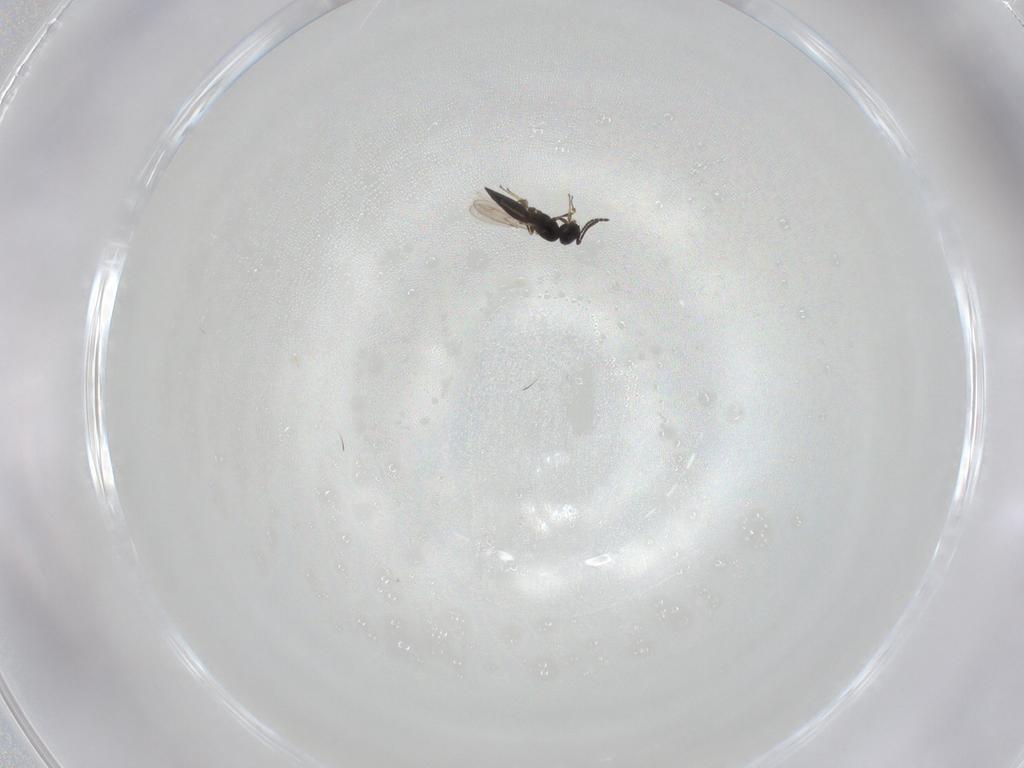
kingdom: Animalia
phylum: Arthropoda
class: Insecta
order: Hymenoptera
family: Scelionidae
